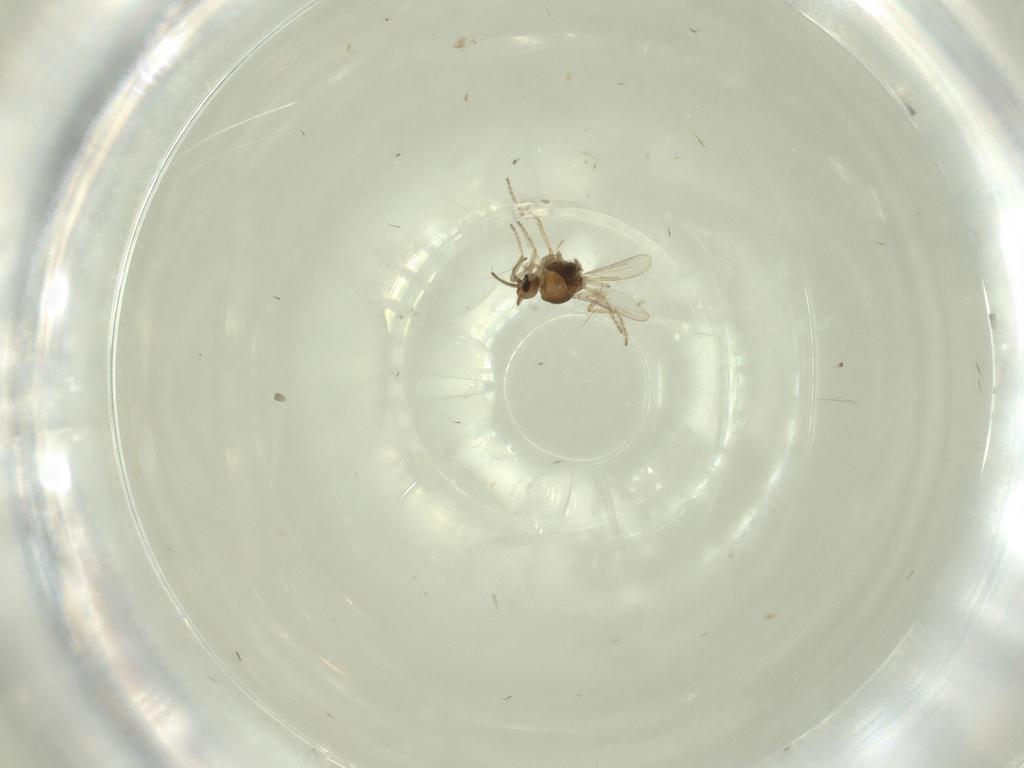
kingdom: Animalia
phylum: Arthropoda
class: Insecta
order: Diptera
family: Ceratopogonidae
